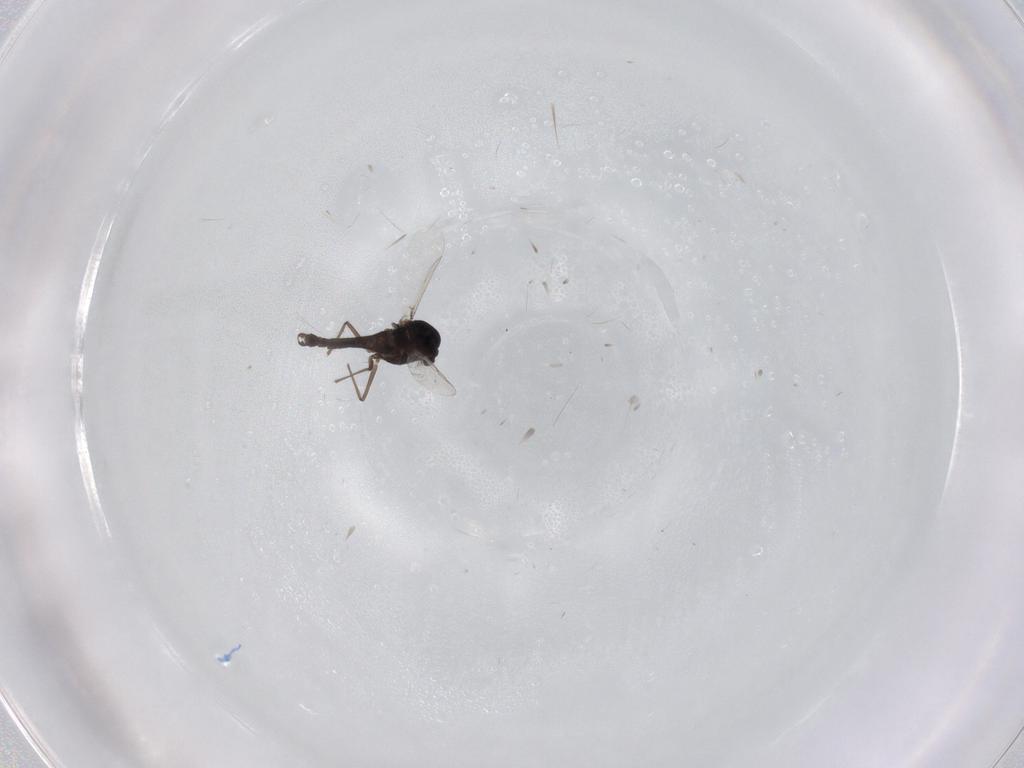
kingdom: Animalia
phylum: Arthropoda
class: Insecta
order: Diptera
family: Chironomidae
